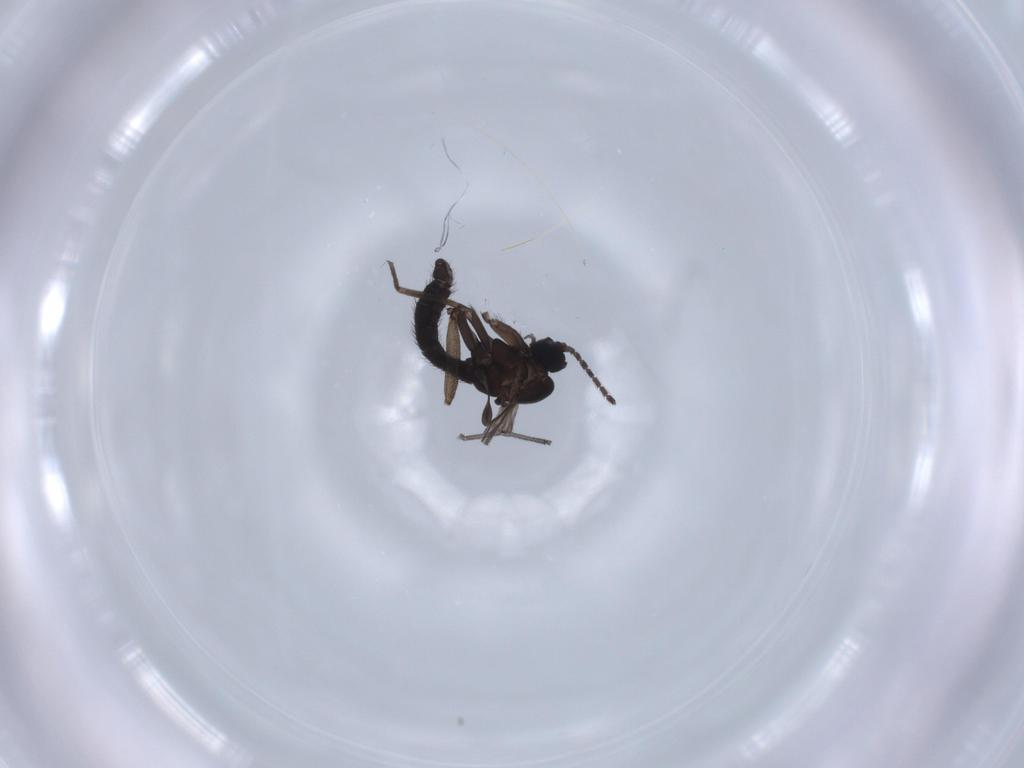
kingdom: Animalia
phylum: Arthropoda
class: Insecta
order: Diptera
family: Sciaridae
